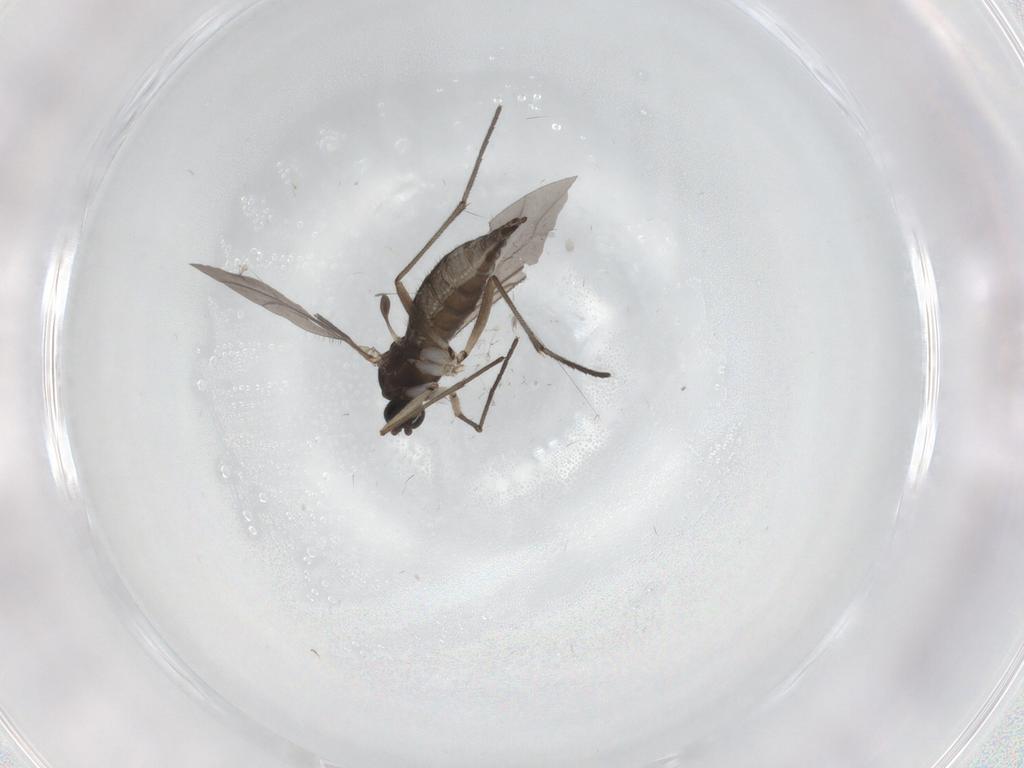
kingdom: Animalia
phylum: Arthropoda
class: Insecta
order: Diptera
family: Sciaridae
